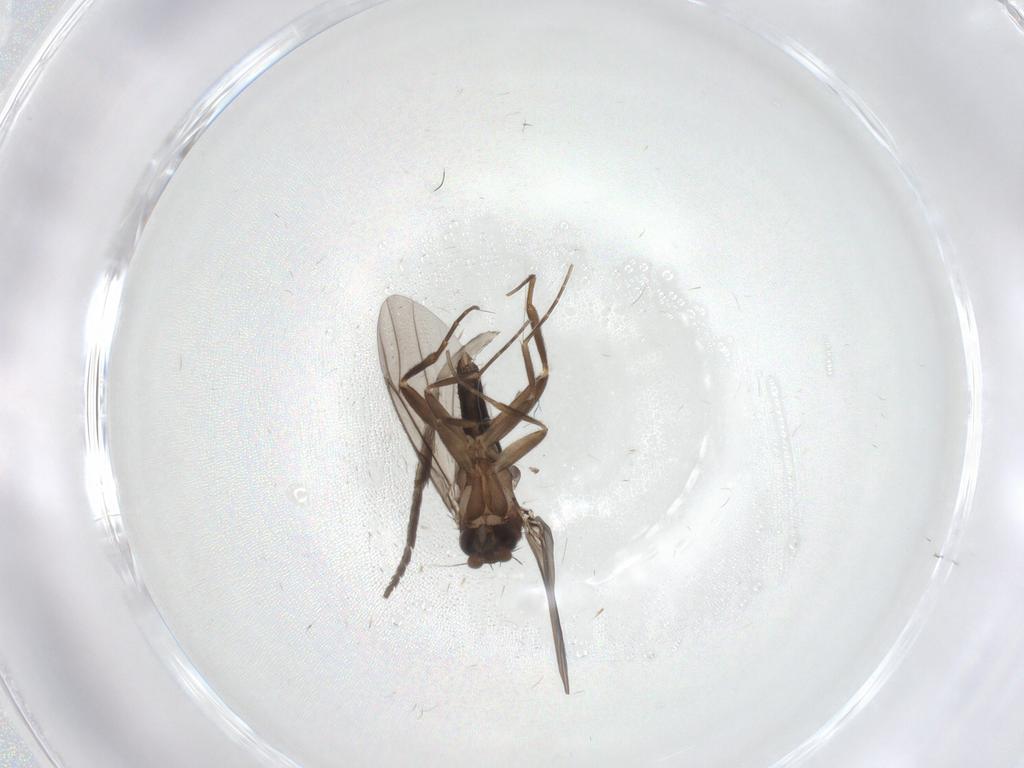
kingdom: Animalia
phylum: Arthropoda
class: Insecta
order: Diptera
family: Psychodidae
